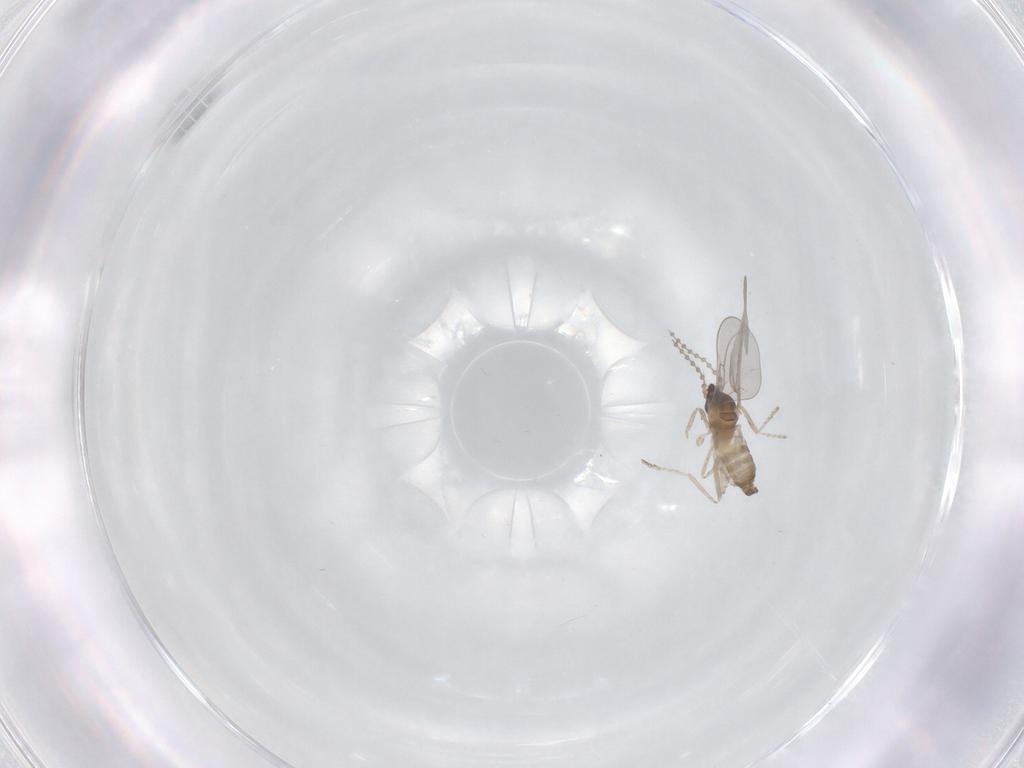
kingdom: Animalia
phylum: Arthropoda
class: Insecta
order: Diptera
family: Cecidomyiidae
